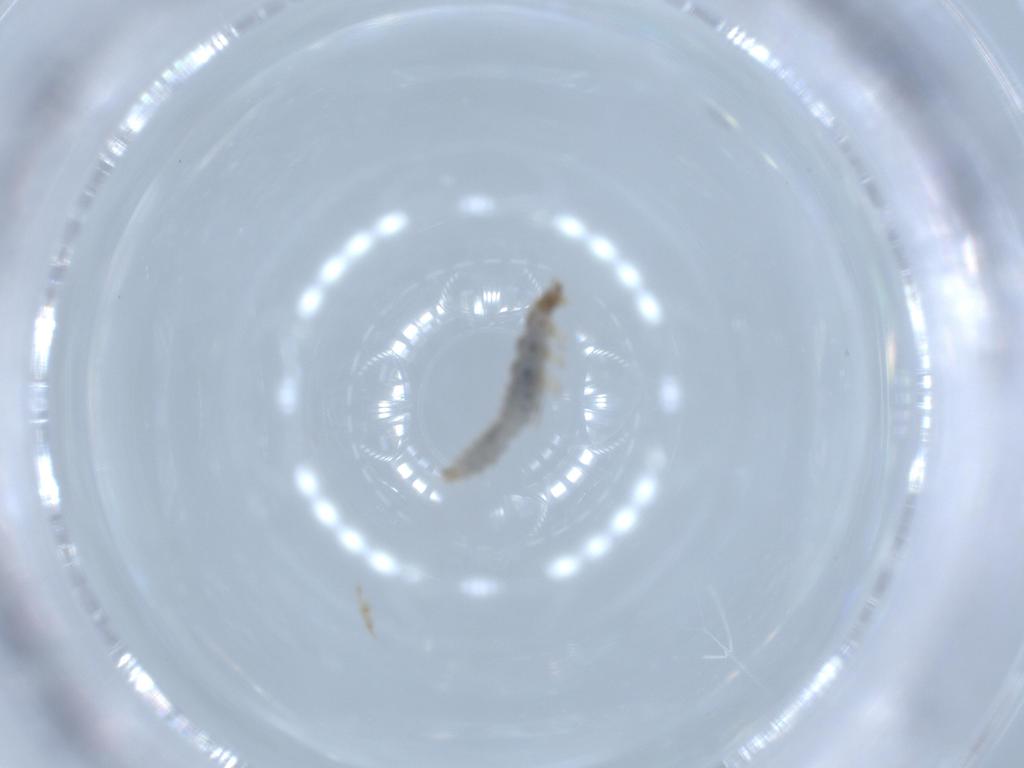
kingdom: Animalia
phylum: Arthropoda
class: Insecta
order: Coleoptera
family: Staphylinidae
